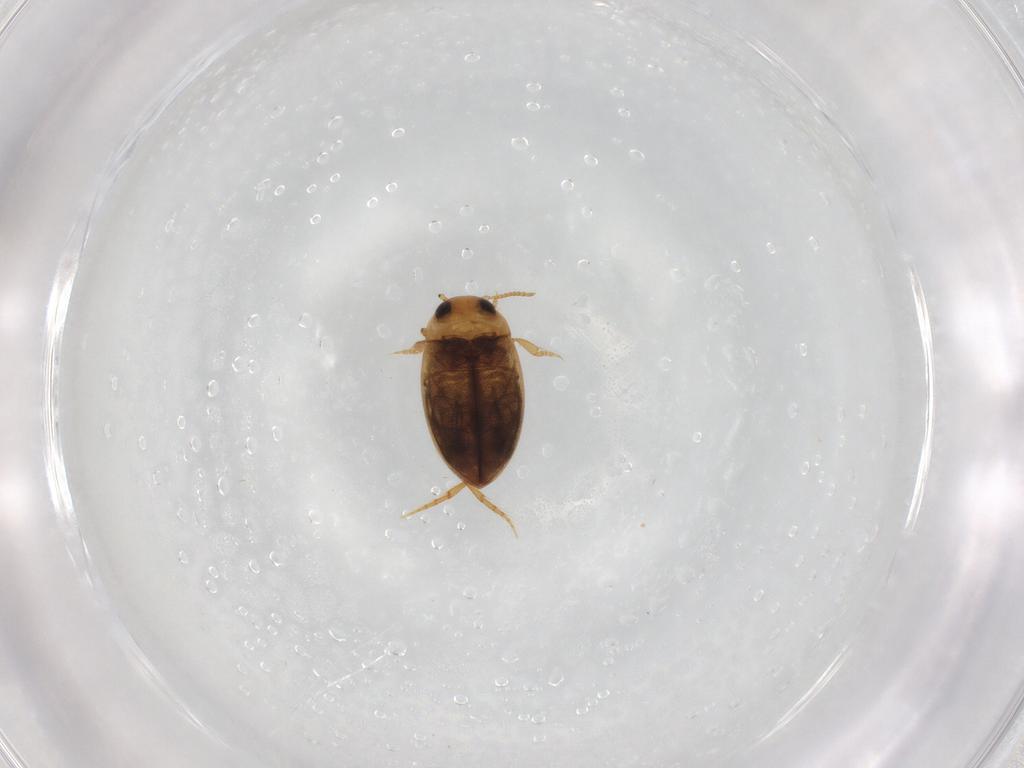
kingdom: Animalia
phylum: Arthropoda
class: Insecta
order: Coleoptera
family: Dytiscidae
